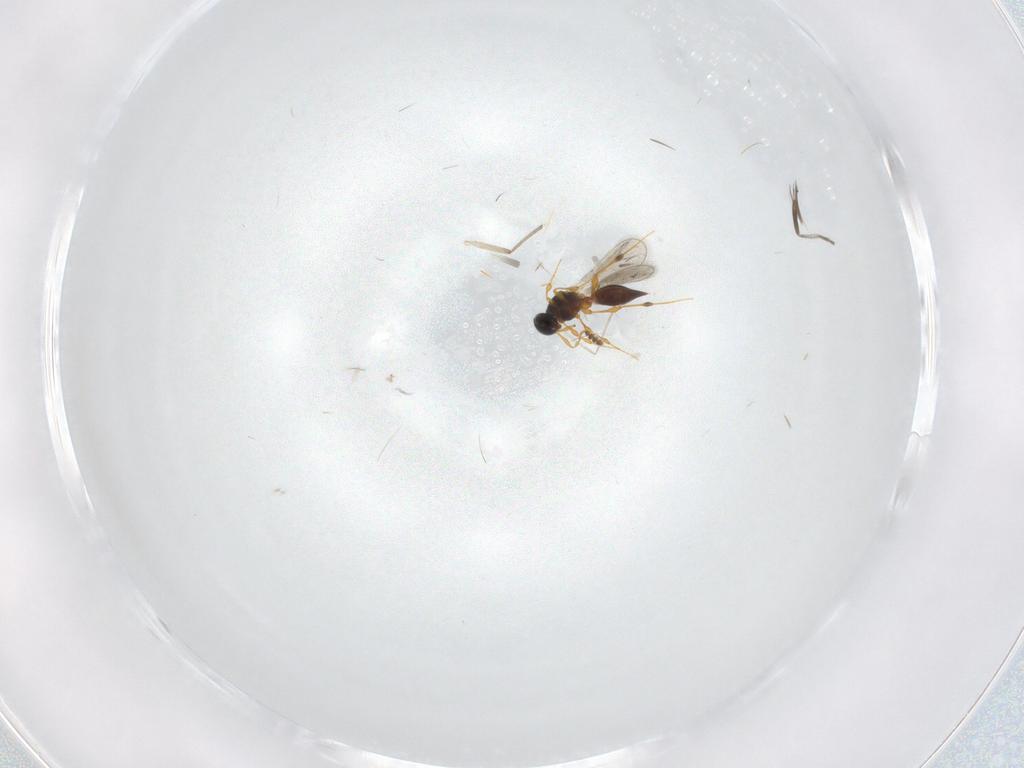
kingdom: Animalia
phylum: Arthropoda
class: Insecta
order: Hymenoptera
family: Platygastridae
